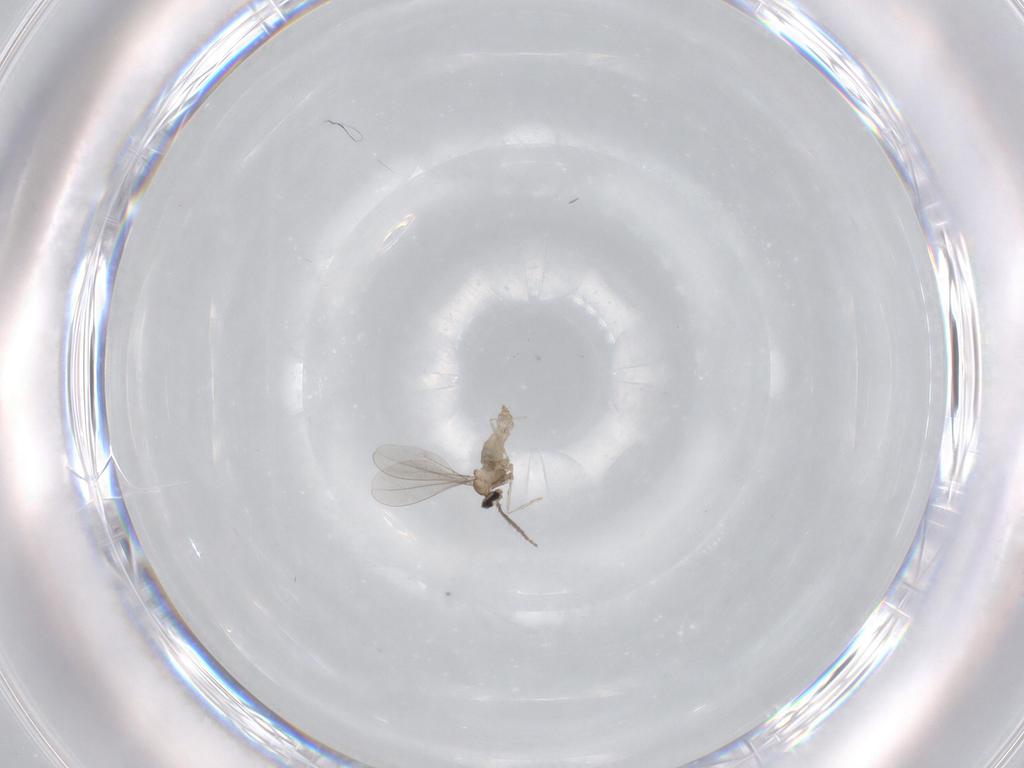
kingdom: Animalia
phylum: Arthropoda
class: Insecta
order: Diptera
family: Cecidomyiidae
